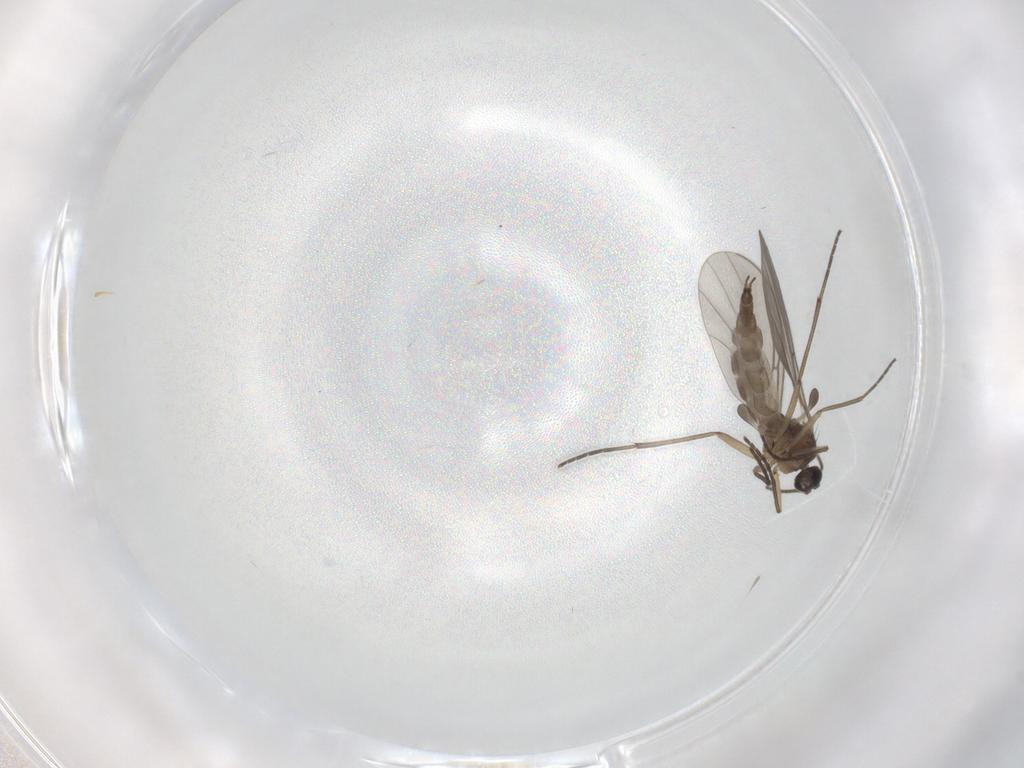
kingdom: Animalia
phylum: Arthropoda
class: Insecta
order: Diptera
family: Sciaridae
